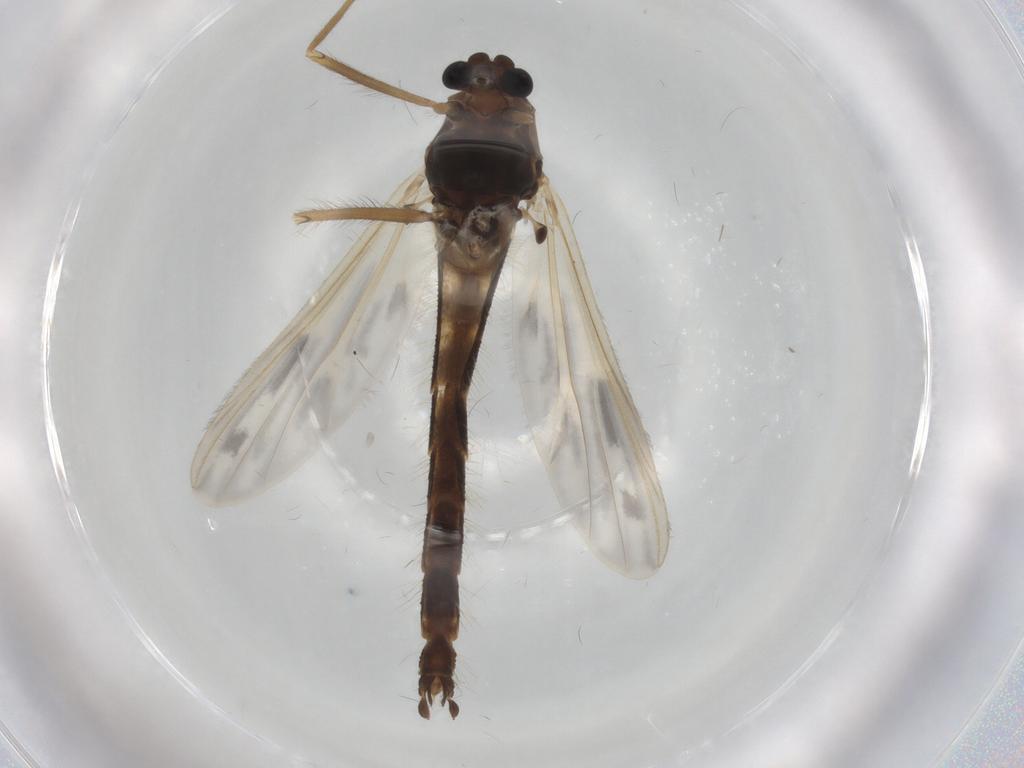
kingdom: Animalia
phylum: Arthropoda
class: Insecta
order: Diptera
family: Chironomidae
